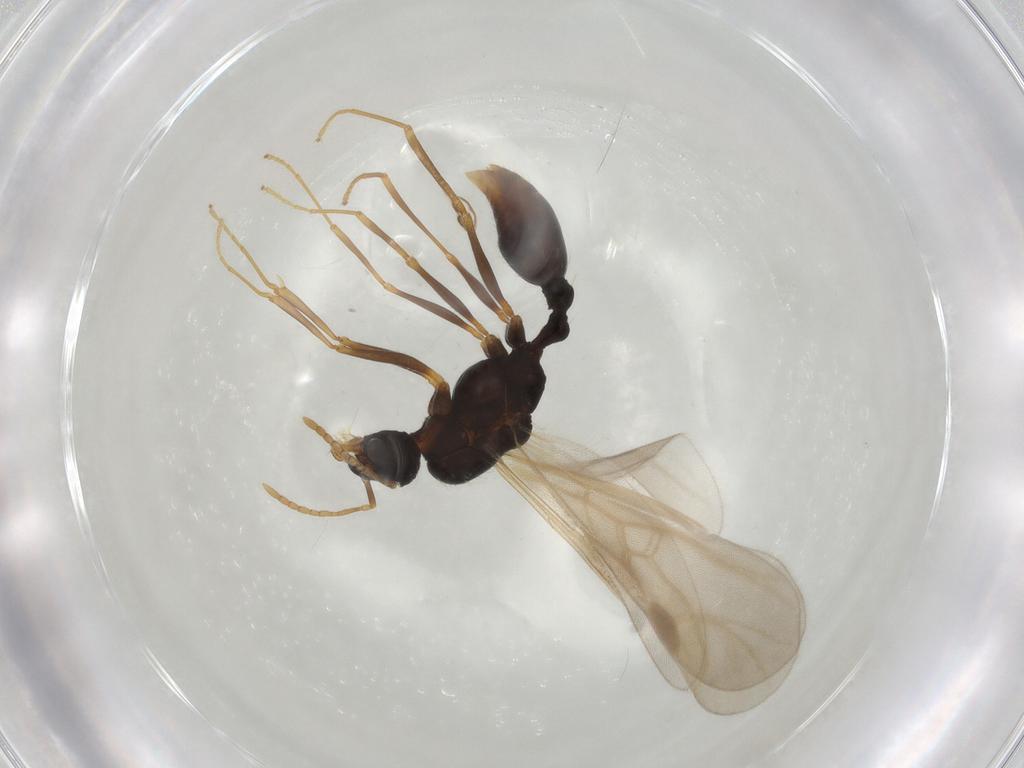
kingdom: Animalia
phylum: Arthropoda
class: Insecta
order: Hymenoptera
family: Formicidae
